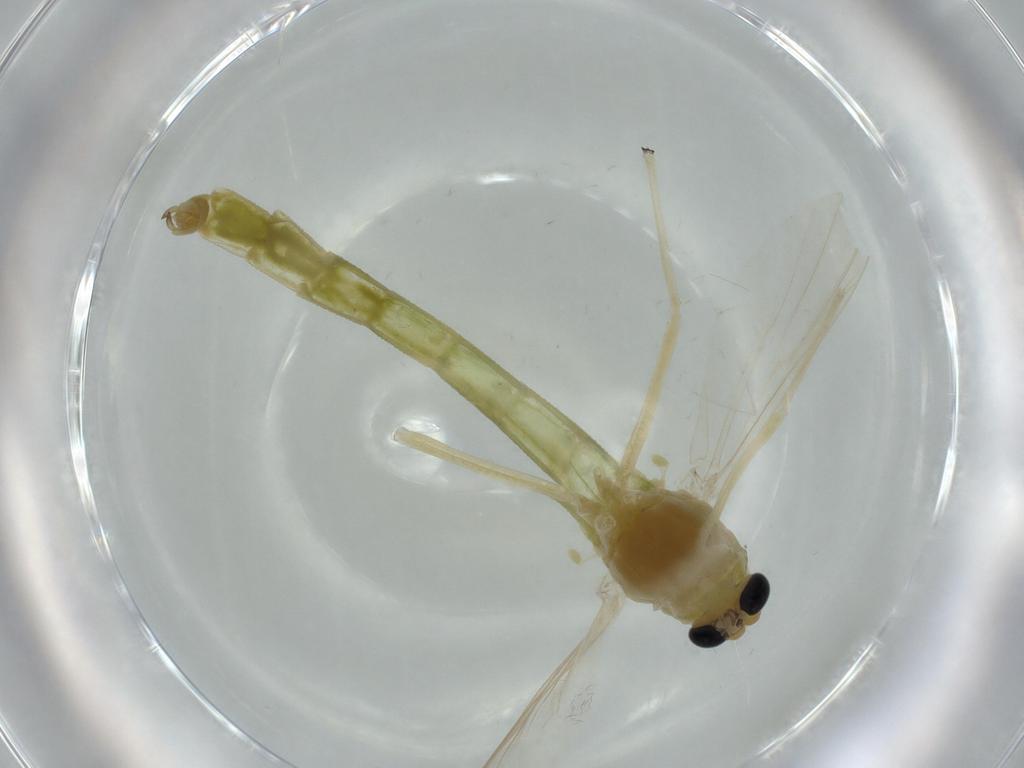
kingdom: Animalia
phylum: Arthropoda
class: Insecta
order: Diptera
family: Chironomidae
